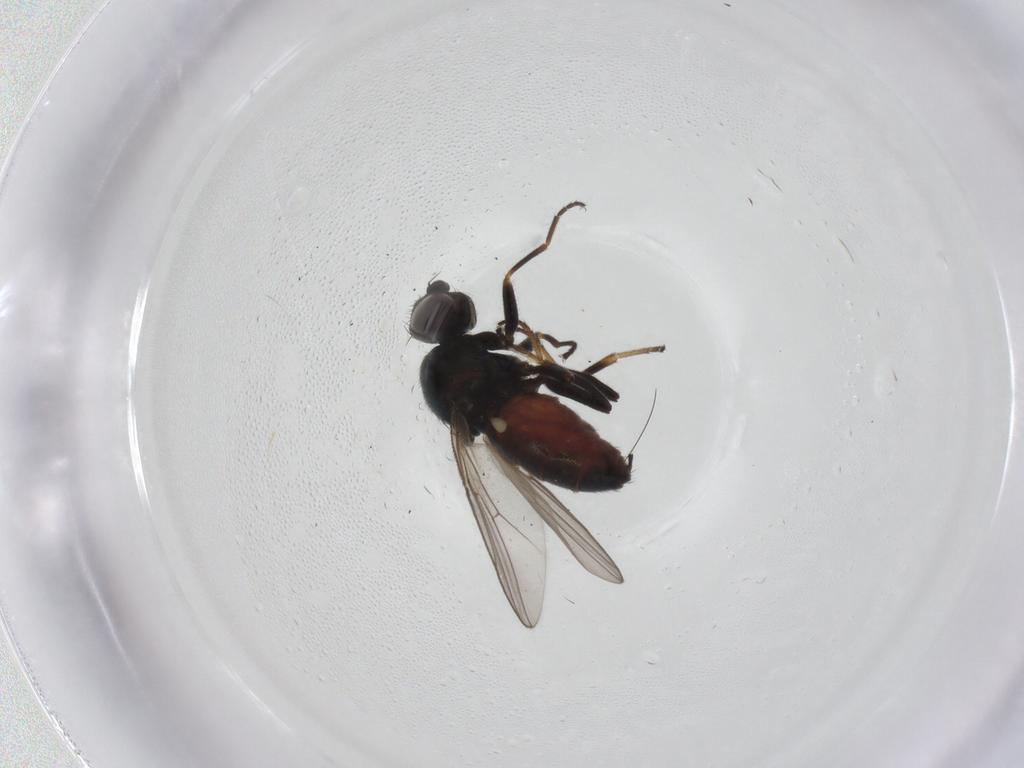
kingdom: Animalia
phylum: Arthropoda
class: Insecta
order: Diptera
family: Chloropidae
